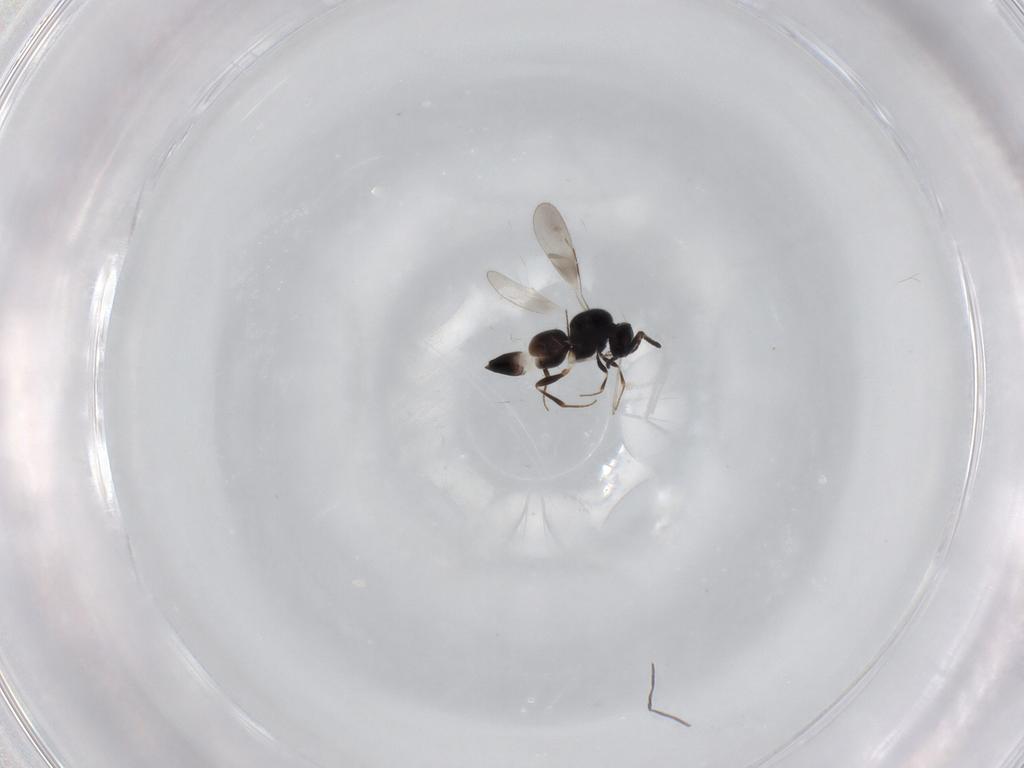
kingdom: Animalia
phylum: Arthropoda
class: Insecta
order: Hymenoptera
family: Ceraphronidae
